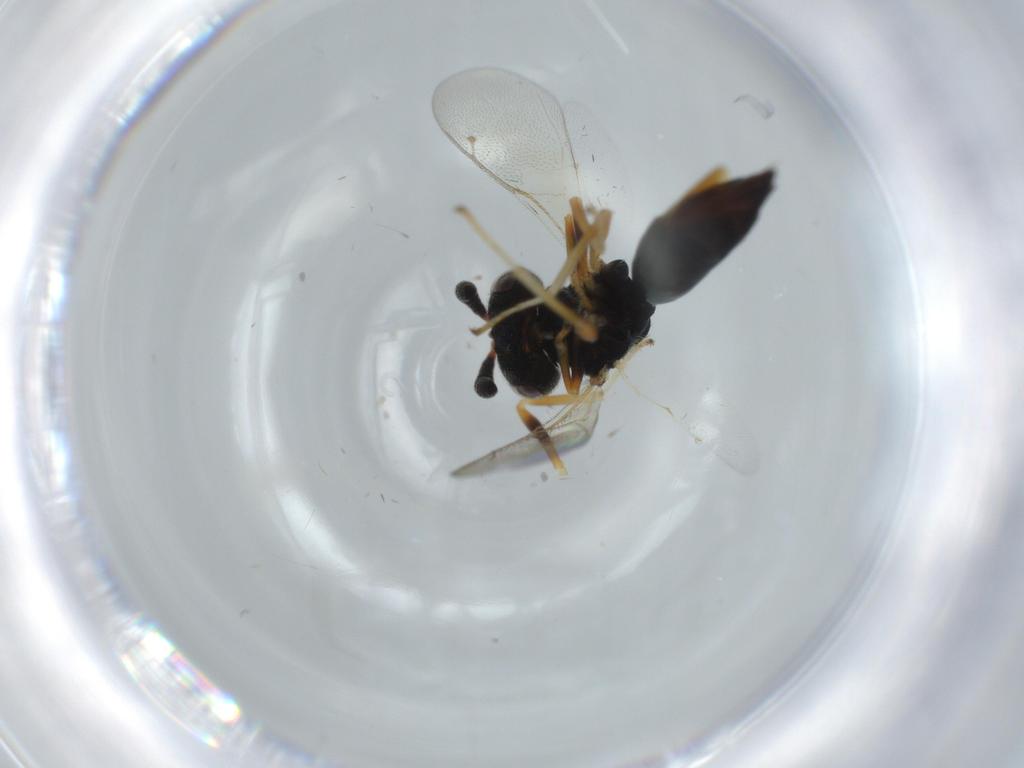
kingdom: Animalia
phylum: Arthropoda
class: Insecta
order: Hymenoptera
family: Agaonidae
